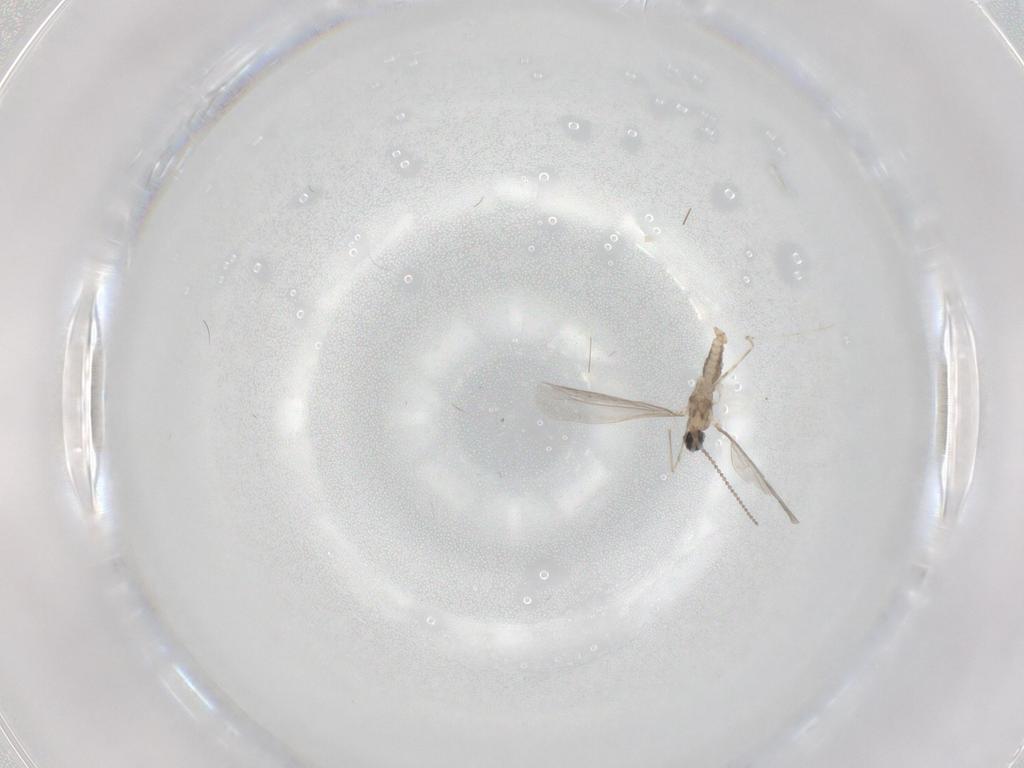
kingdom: Animalia
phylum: Arthropoda
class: Insecta
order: Diptera
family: Cecidomyiidae
